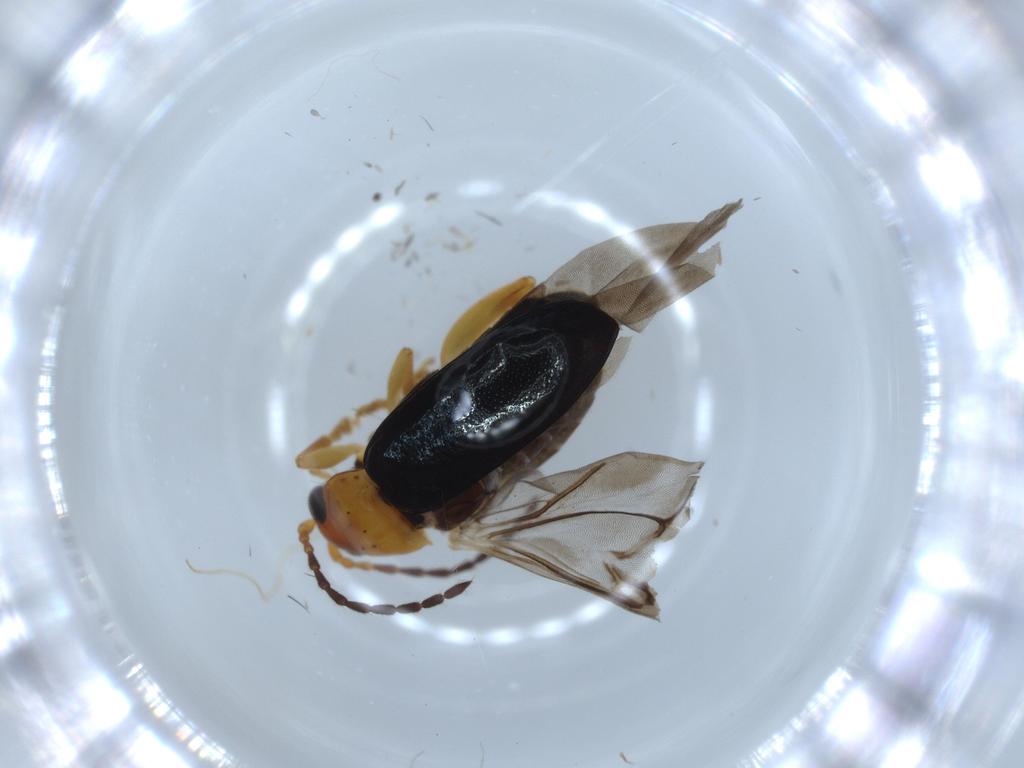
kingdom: Animalia
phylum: Arthropoda
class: Insecta
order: Coleoptera
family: Chrysomelidae
